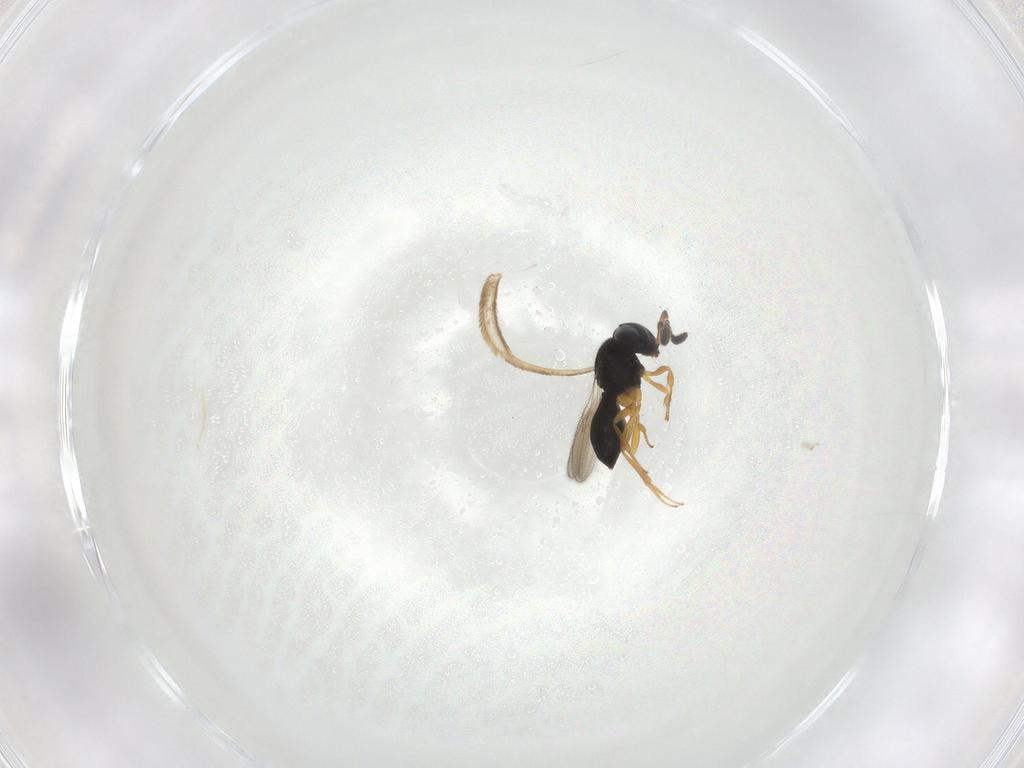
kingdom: Animalia
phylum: Arthropoda
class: Insecta
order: Hymenoptera
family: Scelionidae
